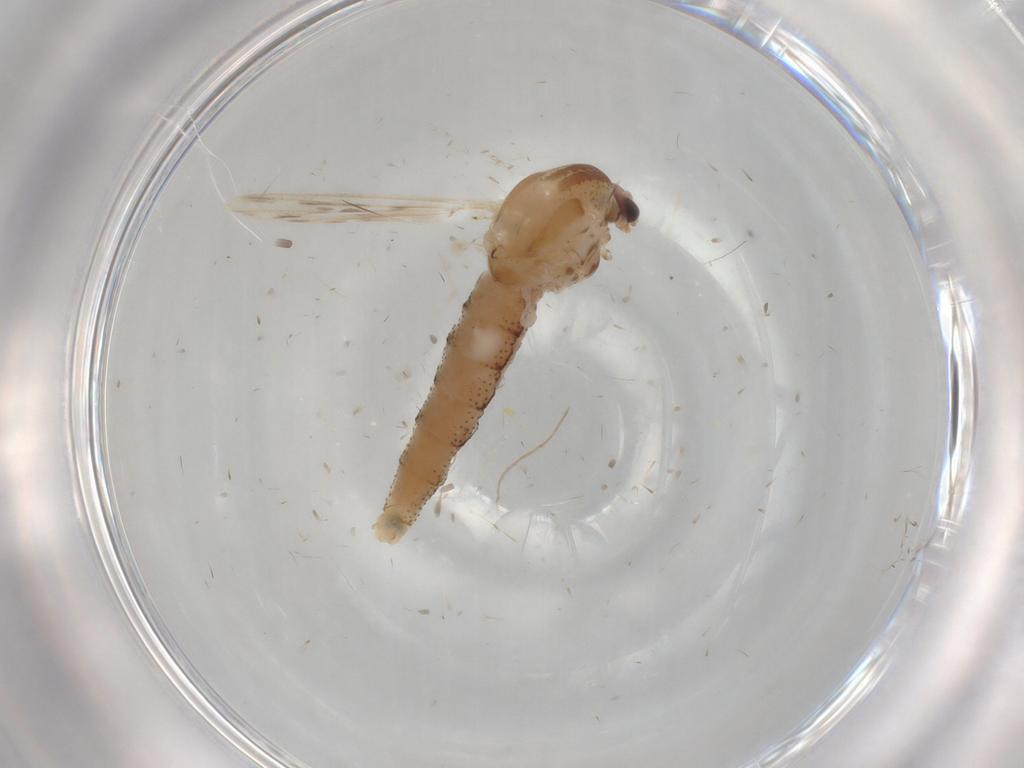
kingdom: Animalia
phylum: Arthropoda
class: Insecta
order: Diptera
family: Chaoboridae
